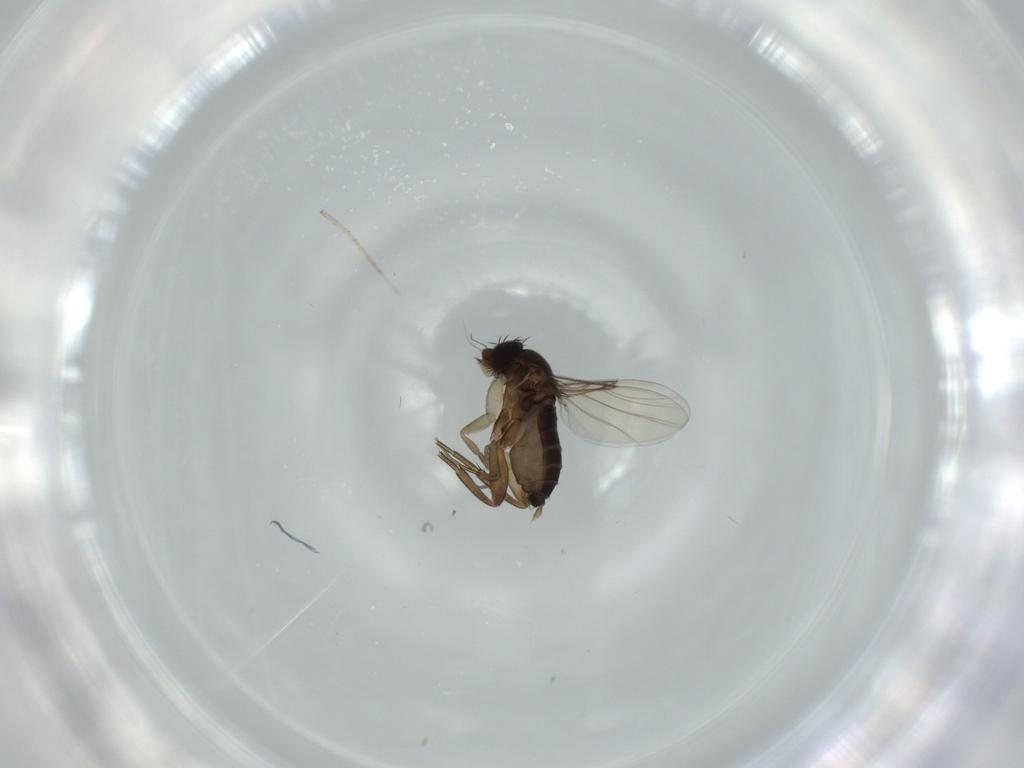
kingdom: Animalia
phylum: Arthropoda
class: Insecta
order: Diptera
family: Phoridae
